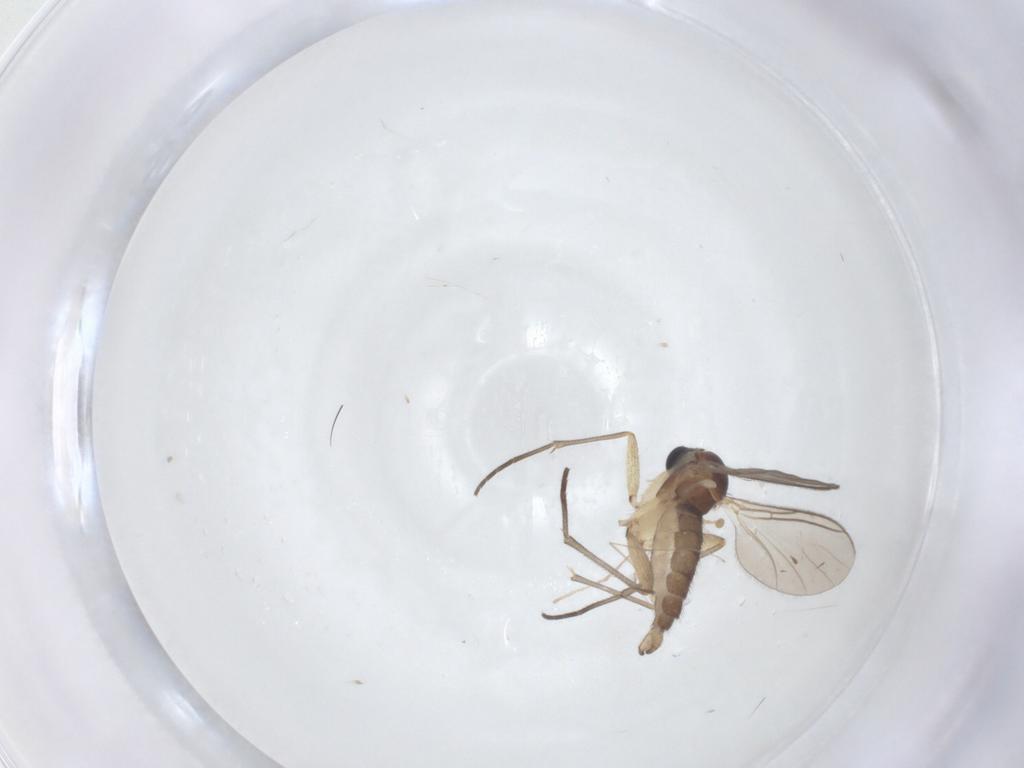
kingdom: Animalia
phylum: Arthropoda
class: Insecta
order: Diptera
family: Sciaridae
